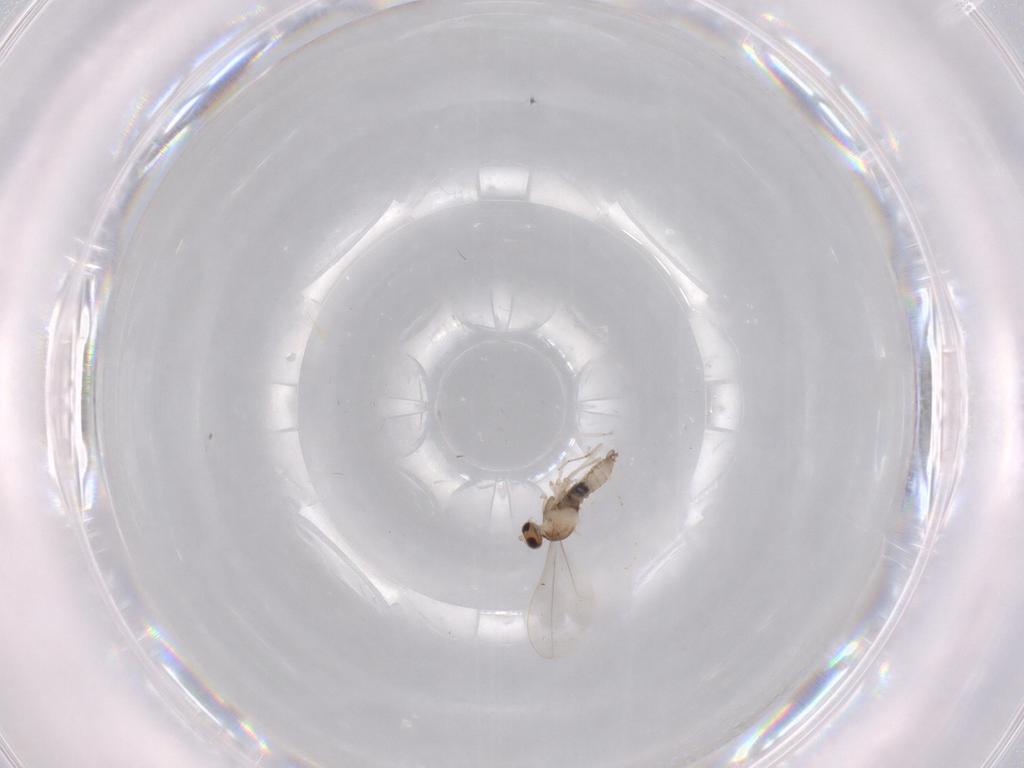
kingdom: Animalia
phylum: Arthropoda
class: Insecta
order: Diptera
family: Cecidomyiidae
